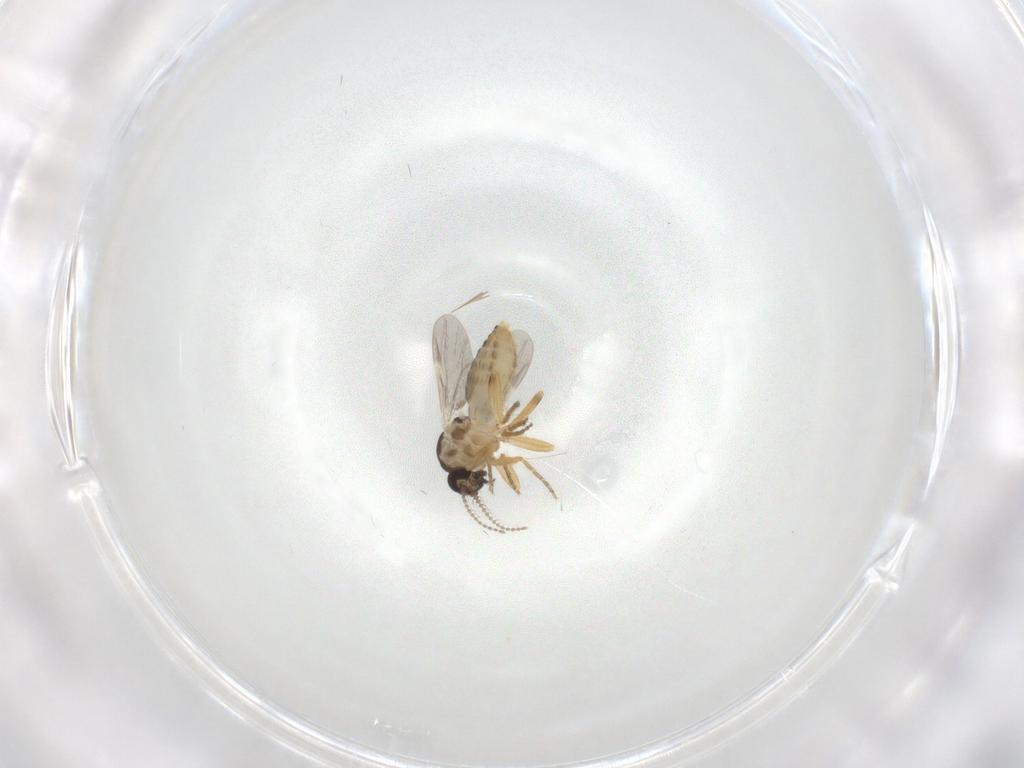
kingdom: Animalia
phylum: Arthropoda
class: Insecta
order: Diptera
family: Ceratopogonidae
